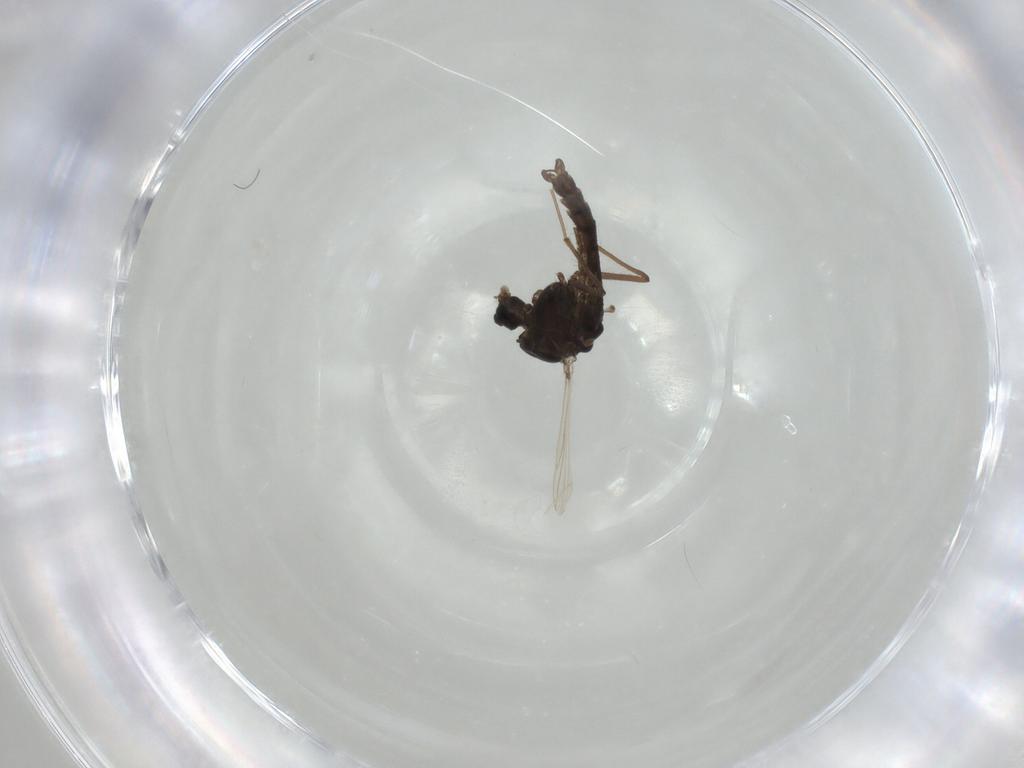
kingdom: Animalia
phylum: Arthropoda
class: Insecta
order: Diptera
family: Chironomidae
